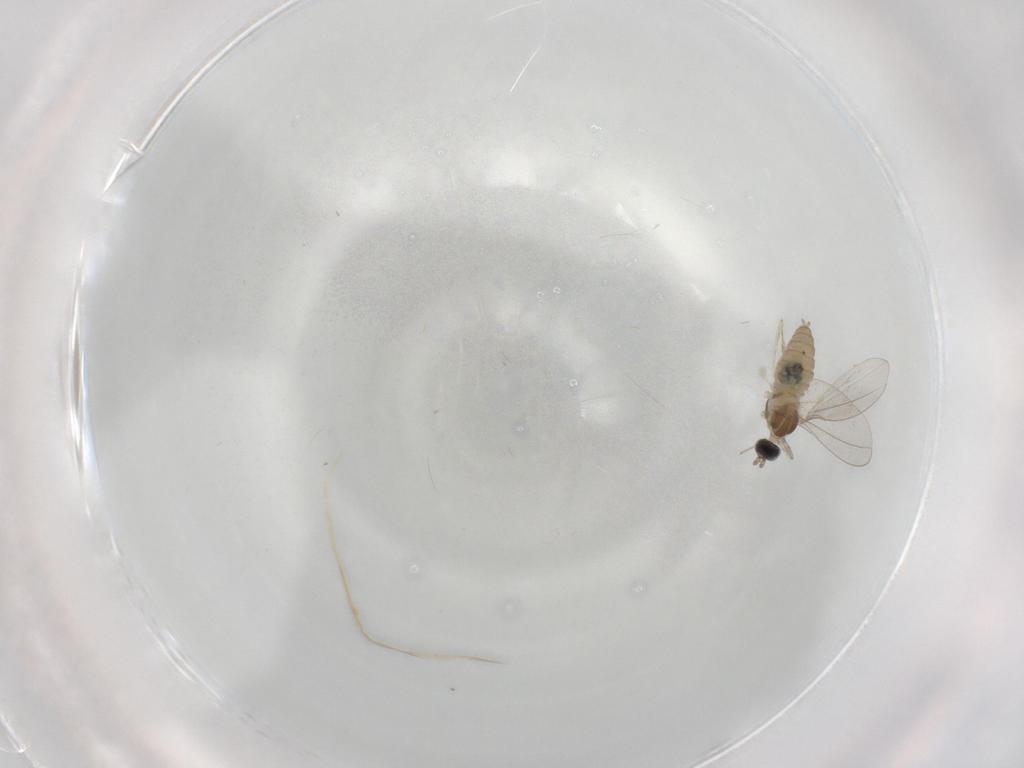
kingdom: Animalia
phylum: Arthropoda
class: Insecta
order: Diptera
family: Cecidomyiidae
